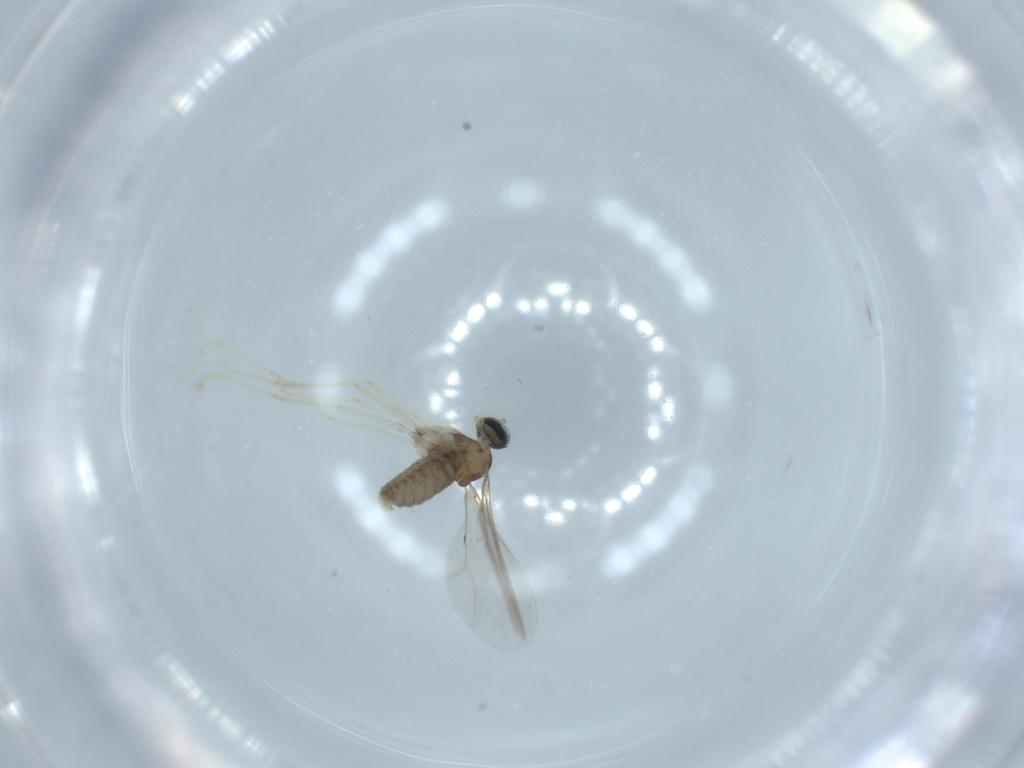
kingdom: Animalia
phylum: Arthropoda
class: Insecta
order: Diptera
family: Cecidomyiidae
